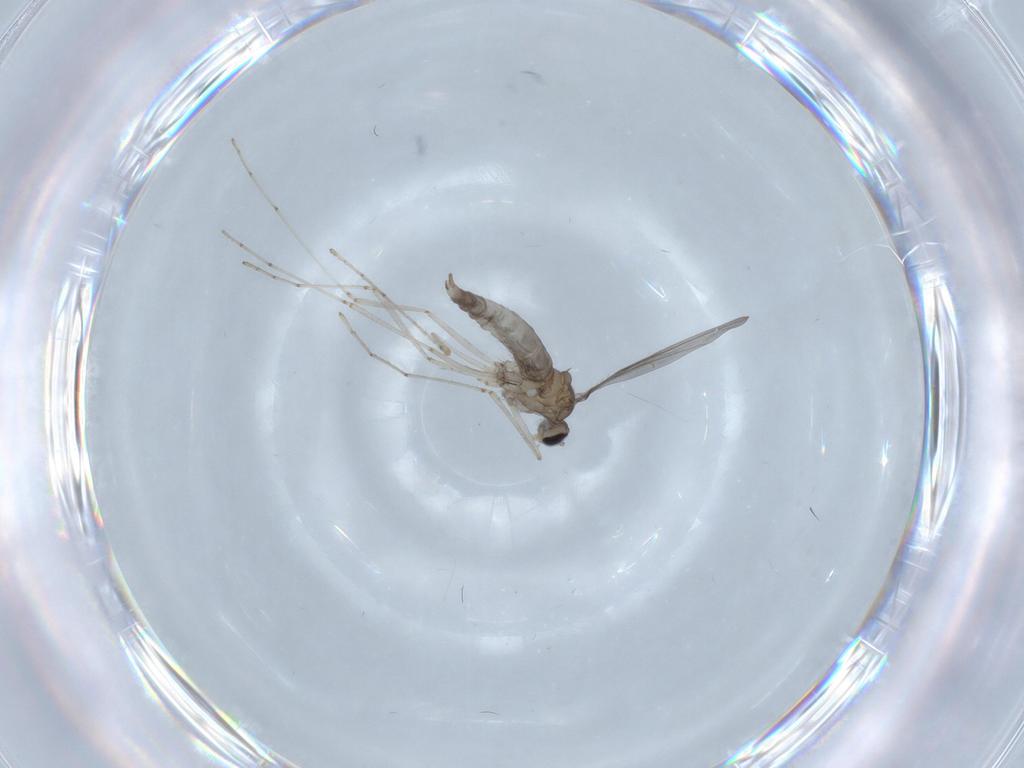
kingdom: Animalia
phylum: Arthropoda
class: Insecta
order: Diptera
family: Cecidomyiidae
